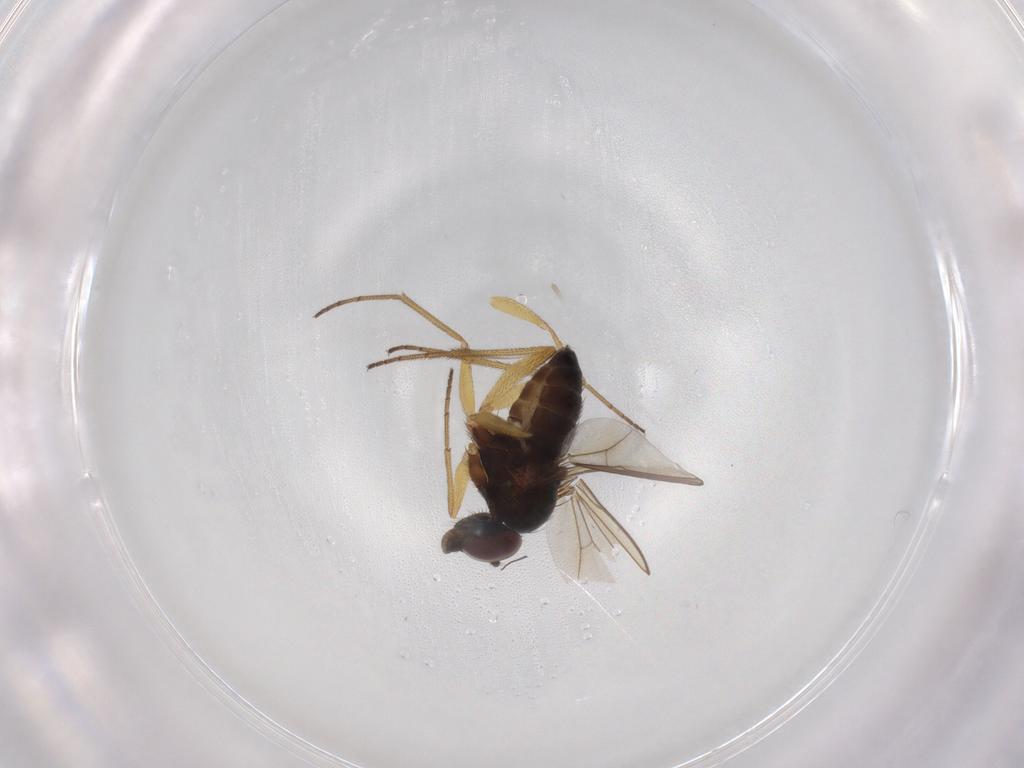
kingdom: Animalia
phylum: Arthropoda
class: Insecta
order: Diptera
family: Dolichopodidae
